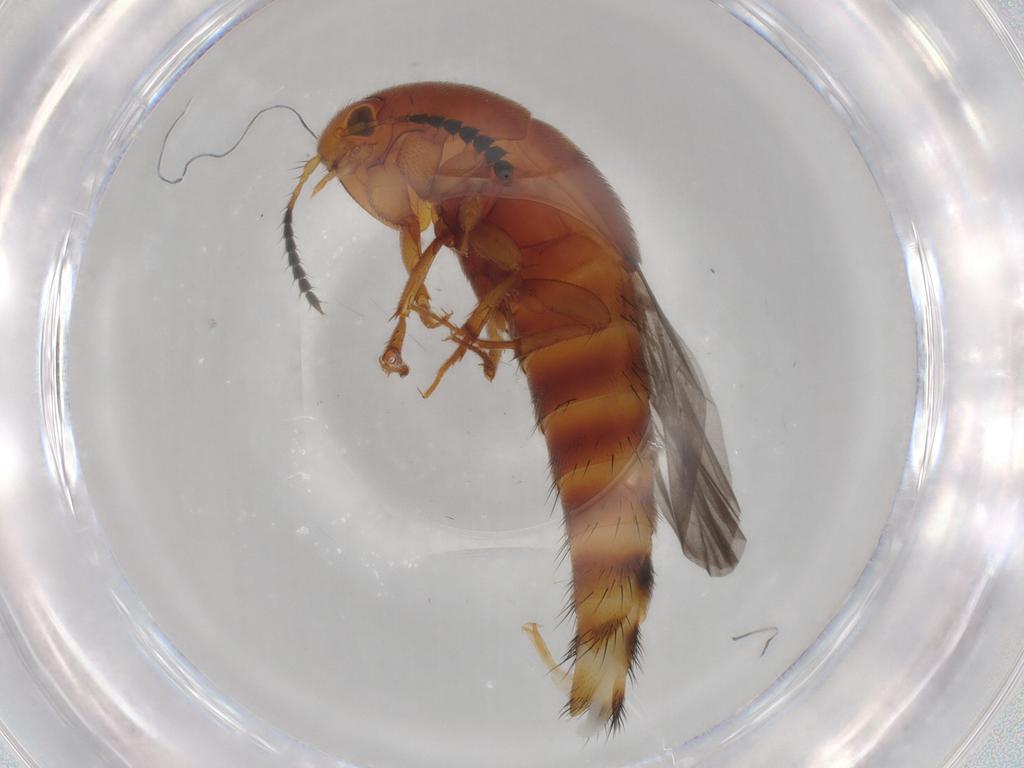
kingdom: Animalia
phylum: Arthropoda
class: Insecta
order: Coleoptera
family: Staphylinidae
